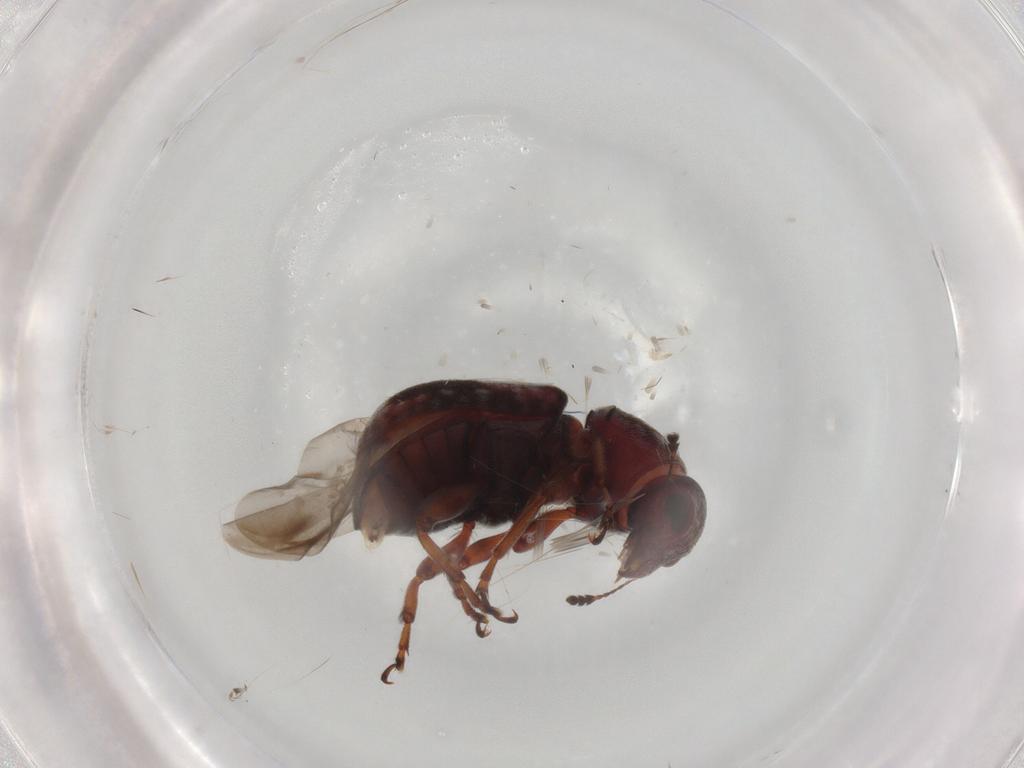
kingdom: Animalia
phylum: Arthropoda
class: Insecta
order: Coleoptera
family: Anthribidae
